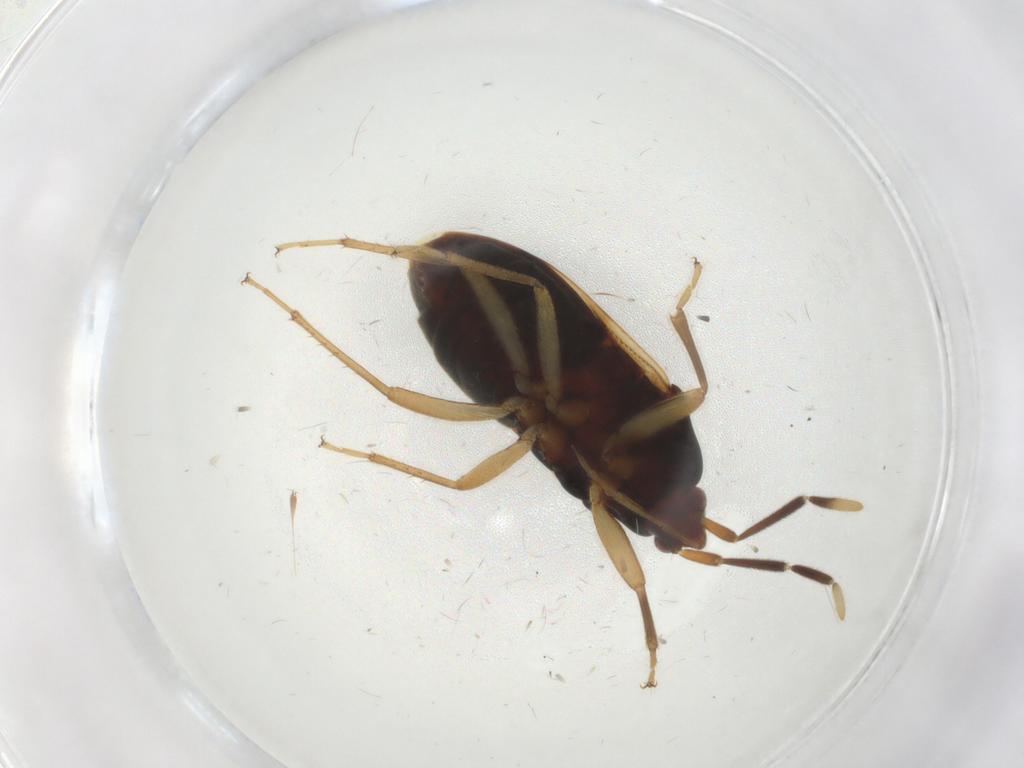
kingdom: Animalia
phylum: Arthropoda
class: Insecta
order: Hemiptera
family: Rhyparochromidae
